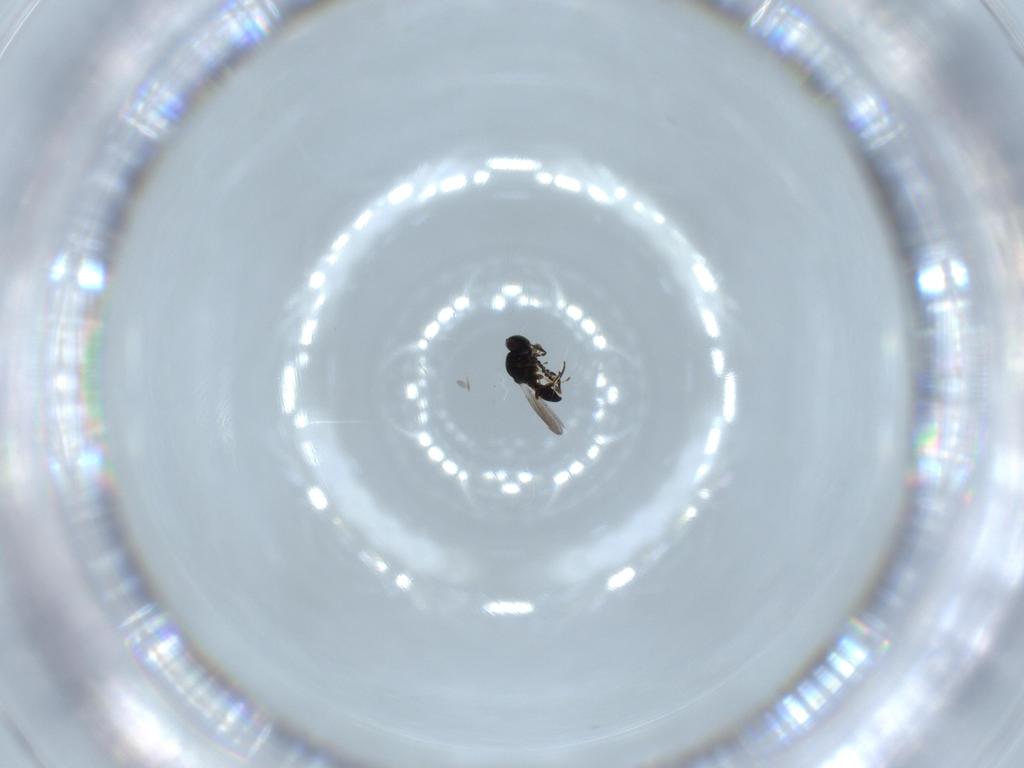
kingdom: Animalia
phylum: Arthropoda
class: Insecta
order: Hymenoptera
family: Platygastridae
